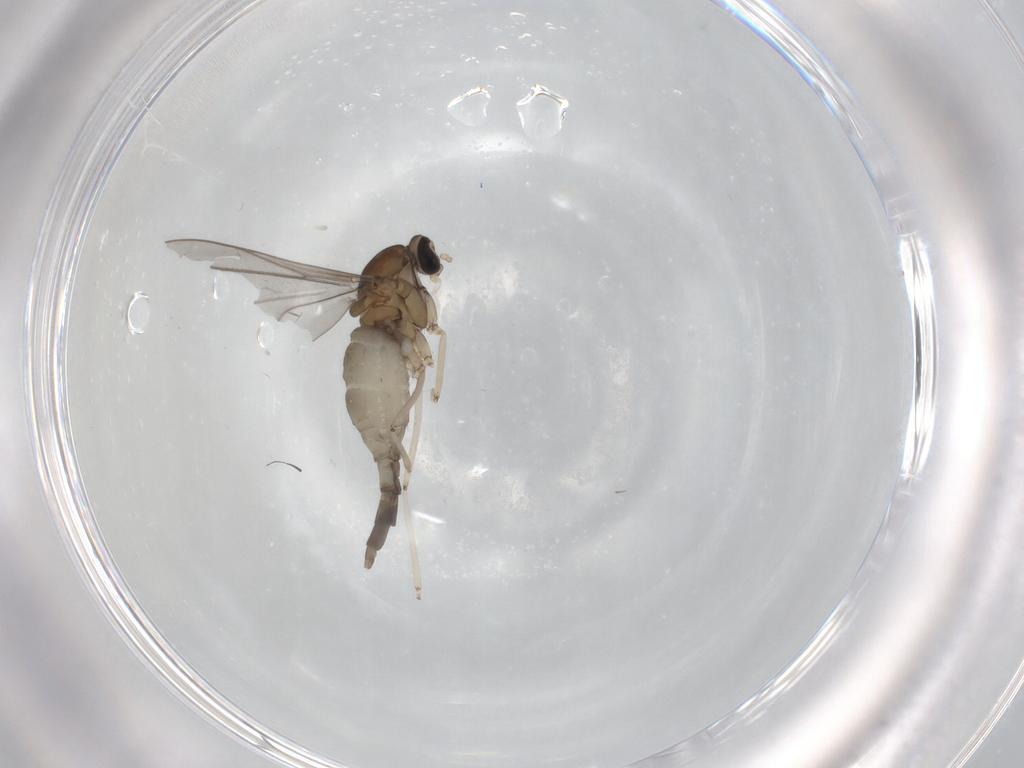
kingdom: Animalia
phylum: Arthropoda
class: Insecta
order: Diptera
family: Cecidomyiidae
